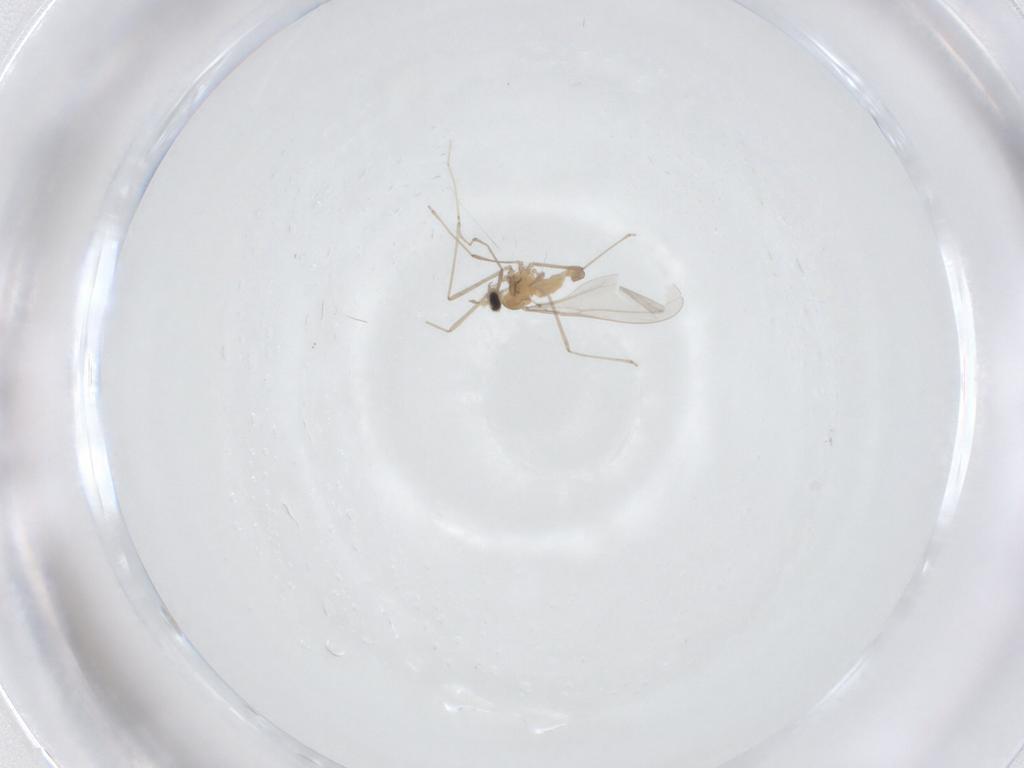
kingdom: Animalia
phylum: Arthropoda
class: Insecta
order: Diptera
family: Cecidomyiidae
